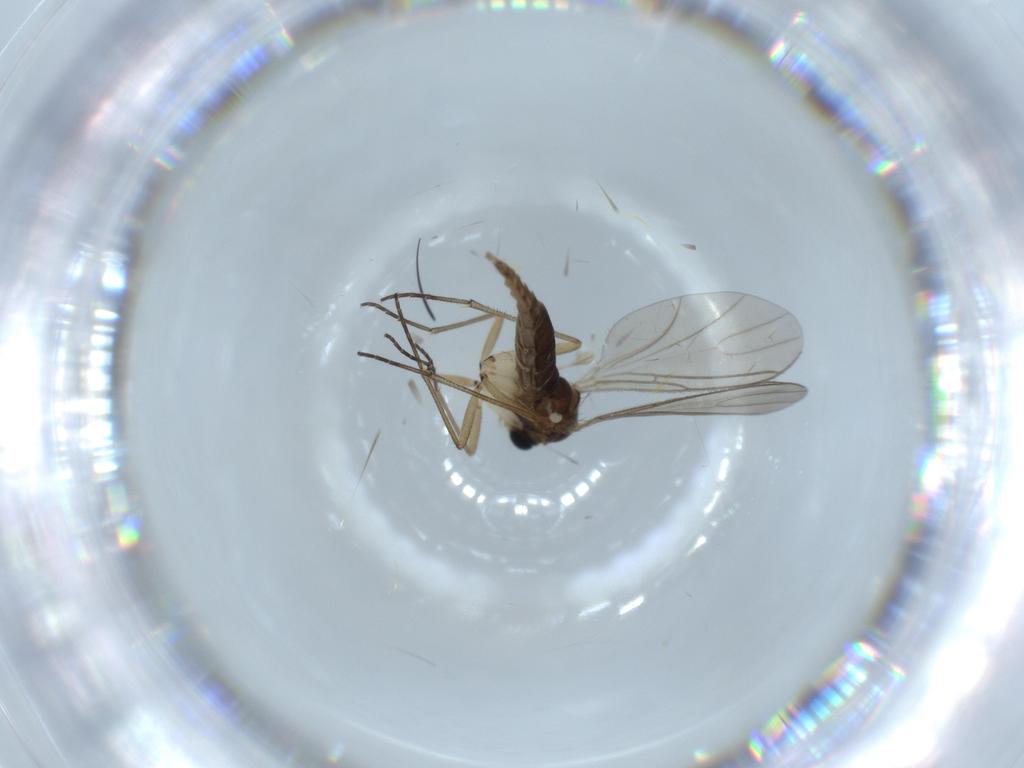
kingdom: Animalia
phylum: Arthropoda
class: Insecta
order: Diptera
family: Sciaridae
